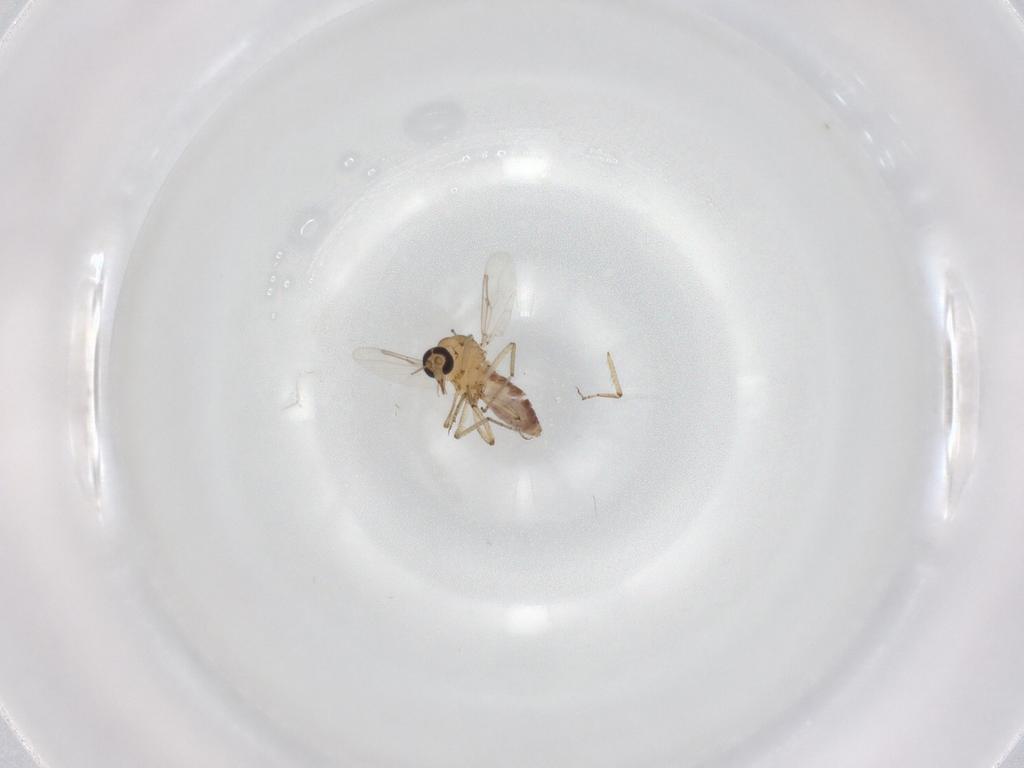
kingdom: Animalia
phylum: Arthropoda
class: Insecta
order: Diptera
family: Ceratopogonidae
